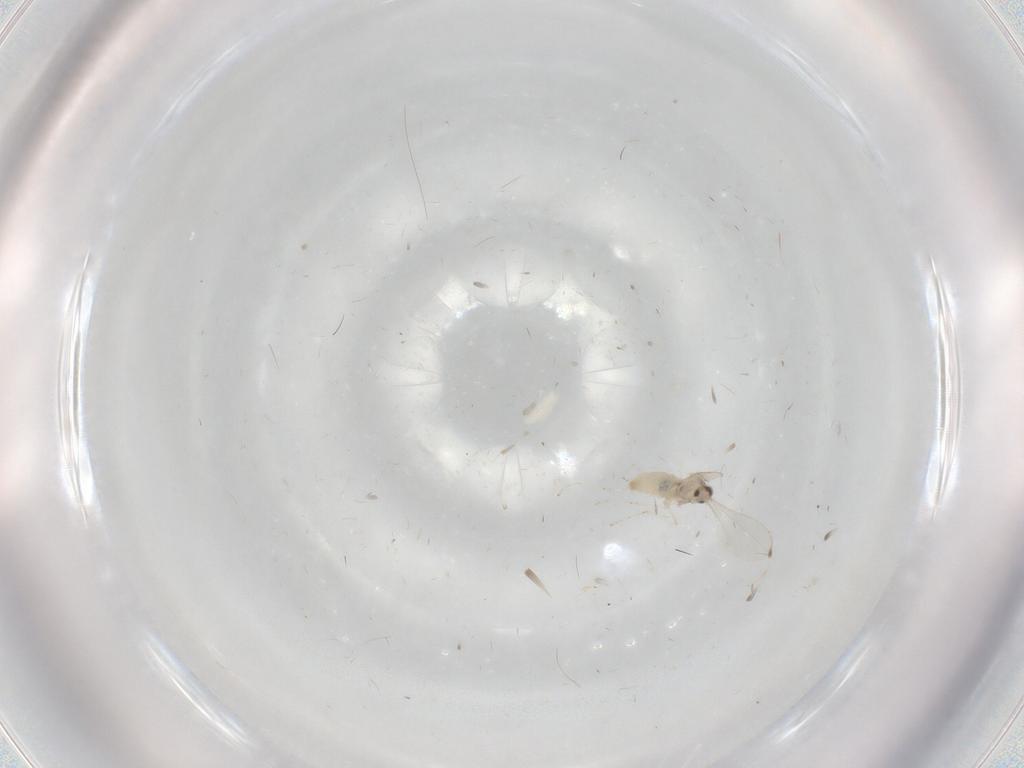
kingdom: Animalia
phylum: Arthropoda
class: Insecta
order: Diptera
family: Cecidomyiidae
